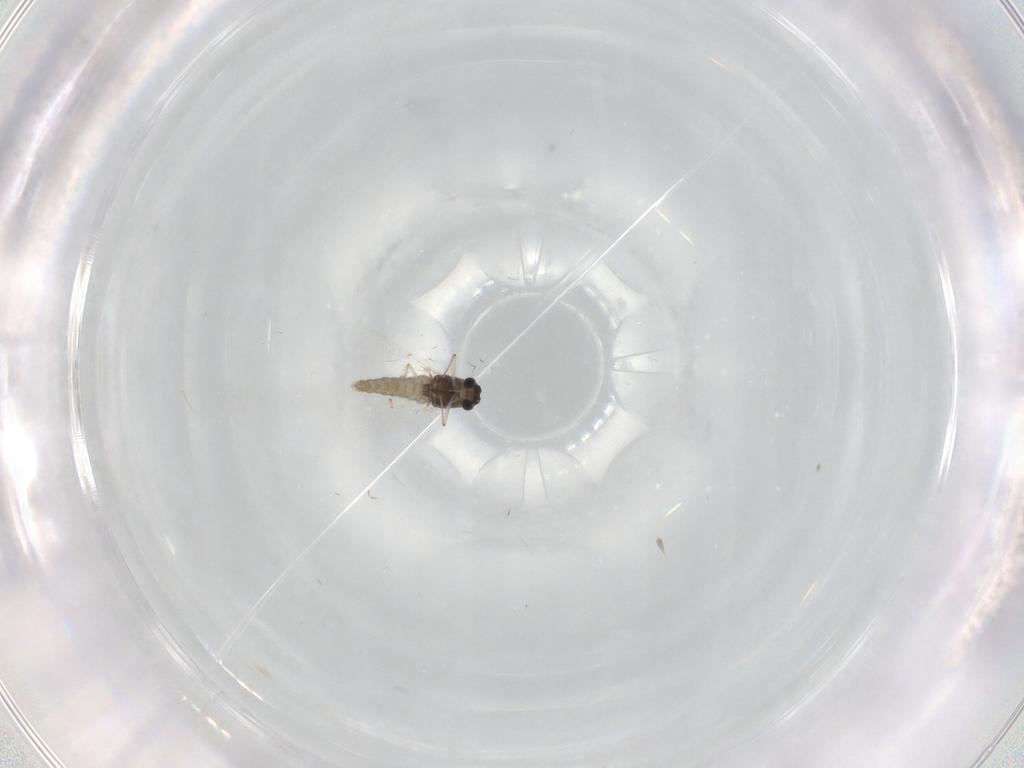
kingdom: Animalia
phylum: Arthropoda
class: Insecta
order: Diptera
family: Chironomidae
